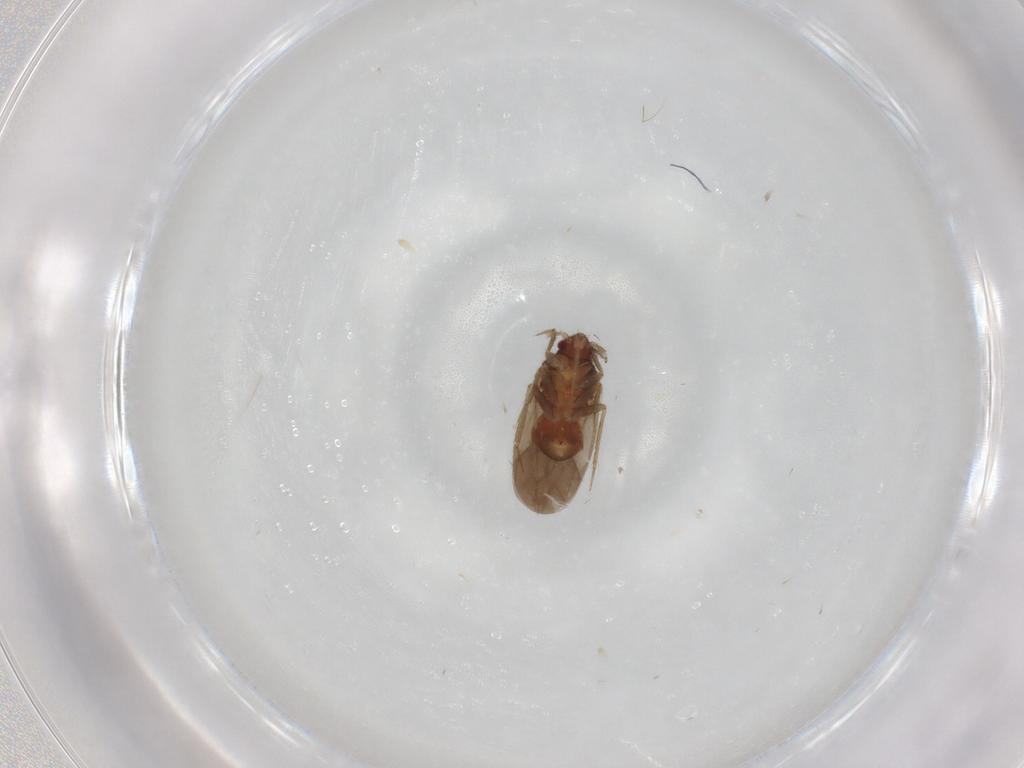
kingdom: Animalia
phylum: Arthropoda
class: Insecta
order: Hemiptera
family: Ceratocombidae
